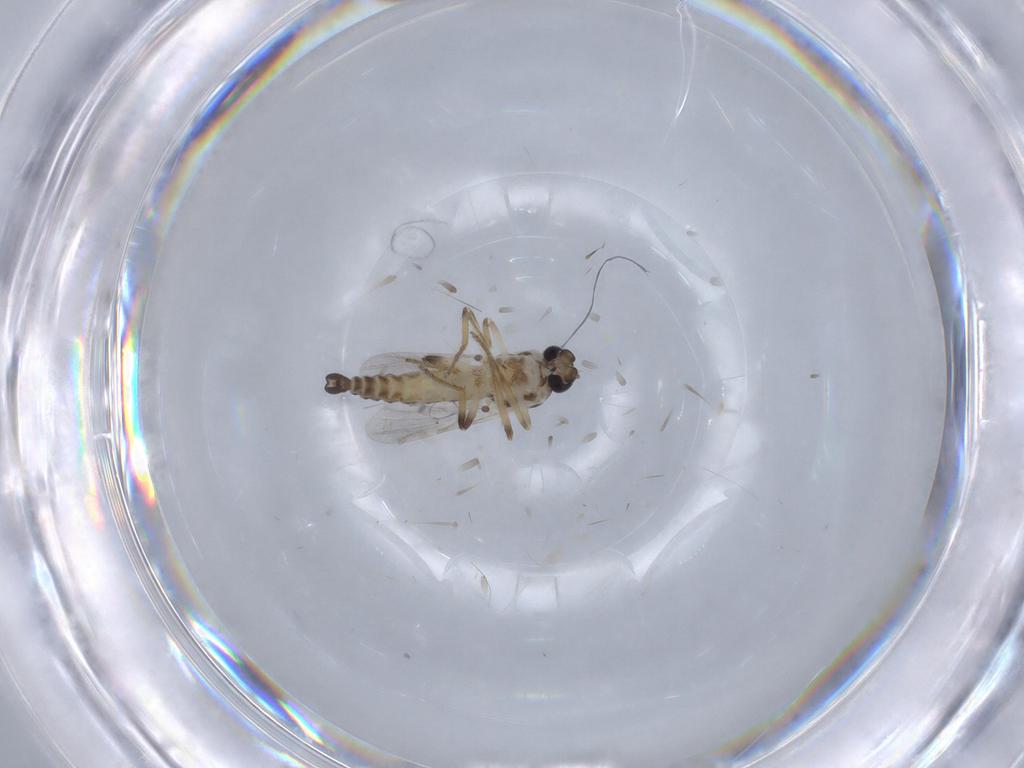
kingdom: Animalia
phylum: Arthropoda
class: Insecta
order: Diptera
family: Ceratopogonidae
